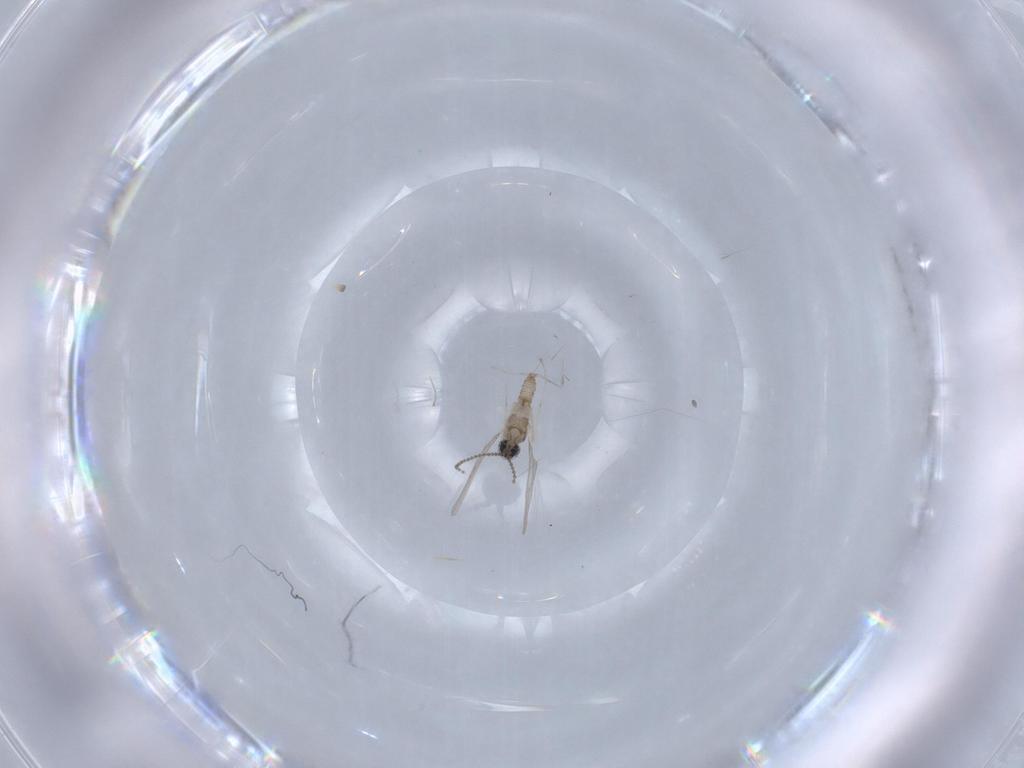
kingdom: Animalia
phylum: Arthropoda
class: Insecta
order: Diptera
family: Cecidomyiidae
